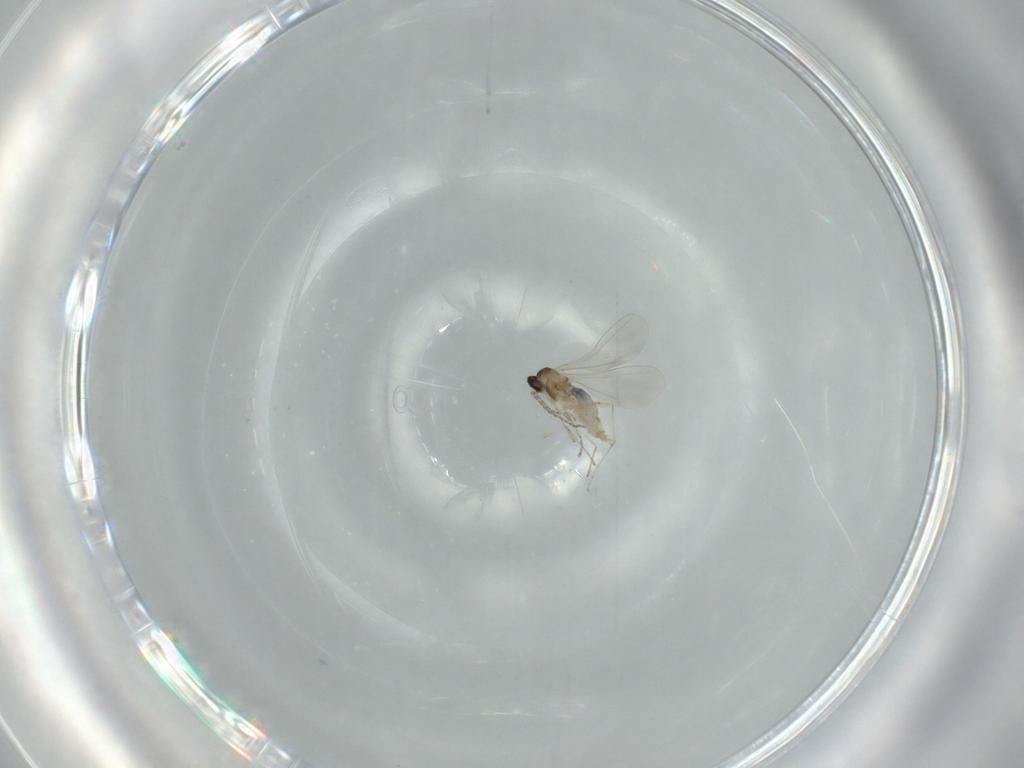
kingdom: Animalia
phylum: Arthropoda
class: Insecta
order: Diptera
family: Cecidomyiidae
